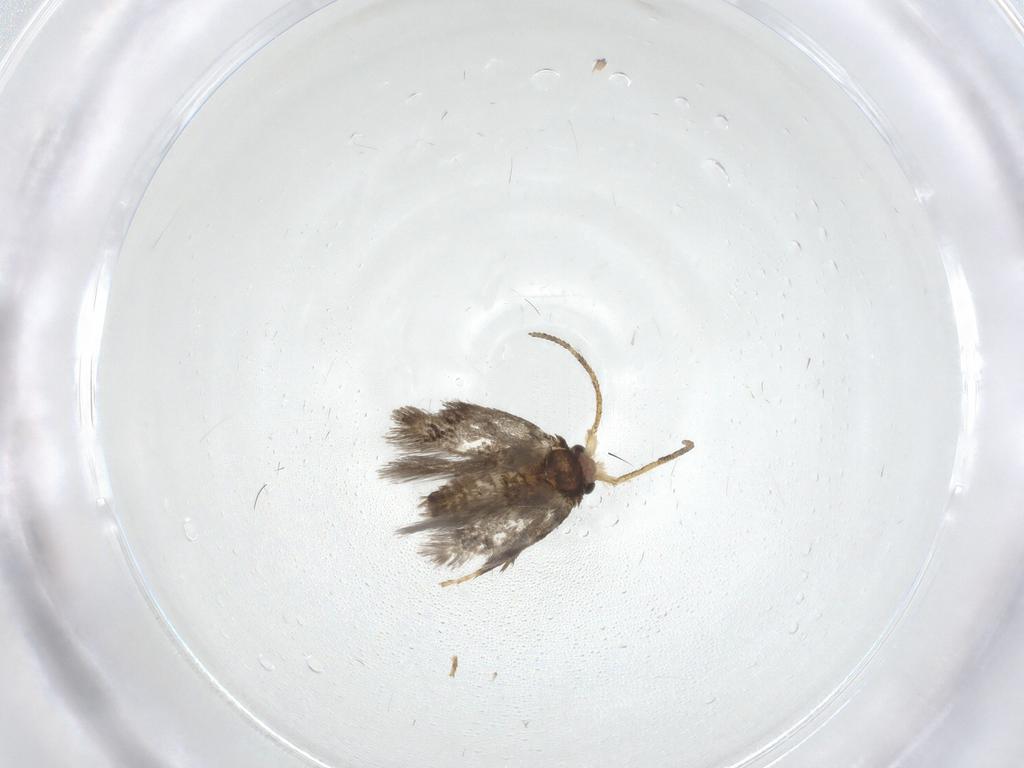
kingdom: Animalia
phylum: Arthropoda
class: Insecta
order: Lepidoptera
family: Nepticulidae
